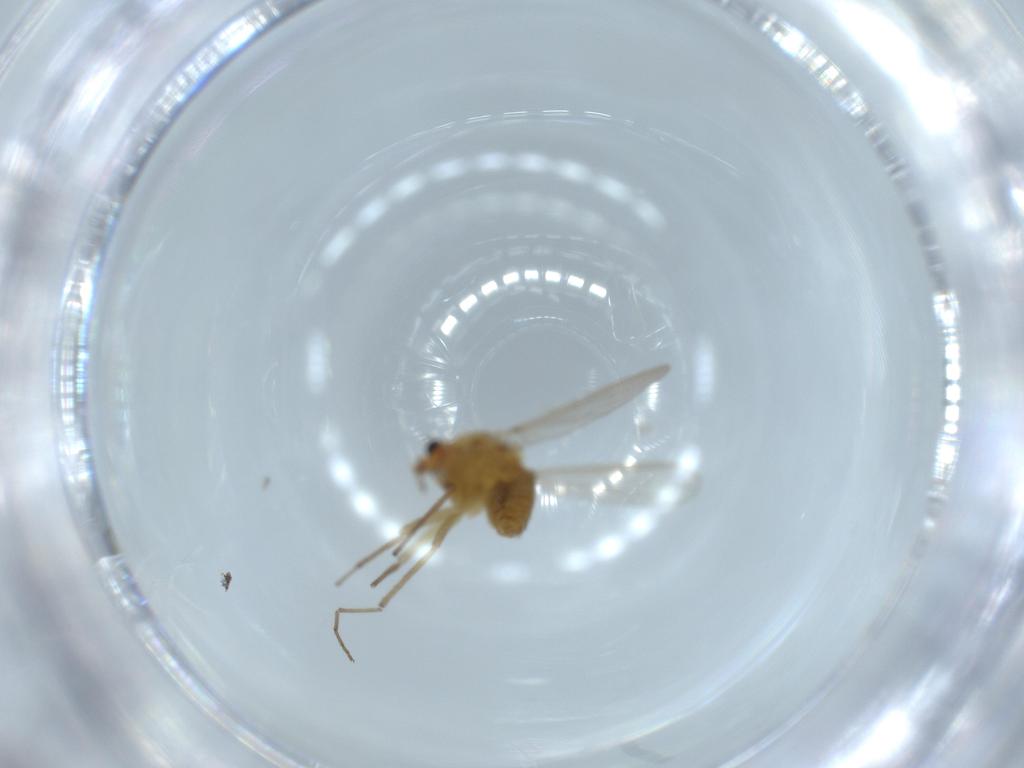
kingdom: Animalia
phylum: Arthropoda
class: Insecta
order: Diptera
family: Chironomidae
